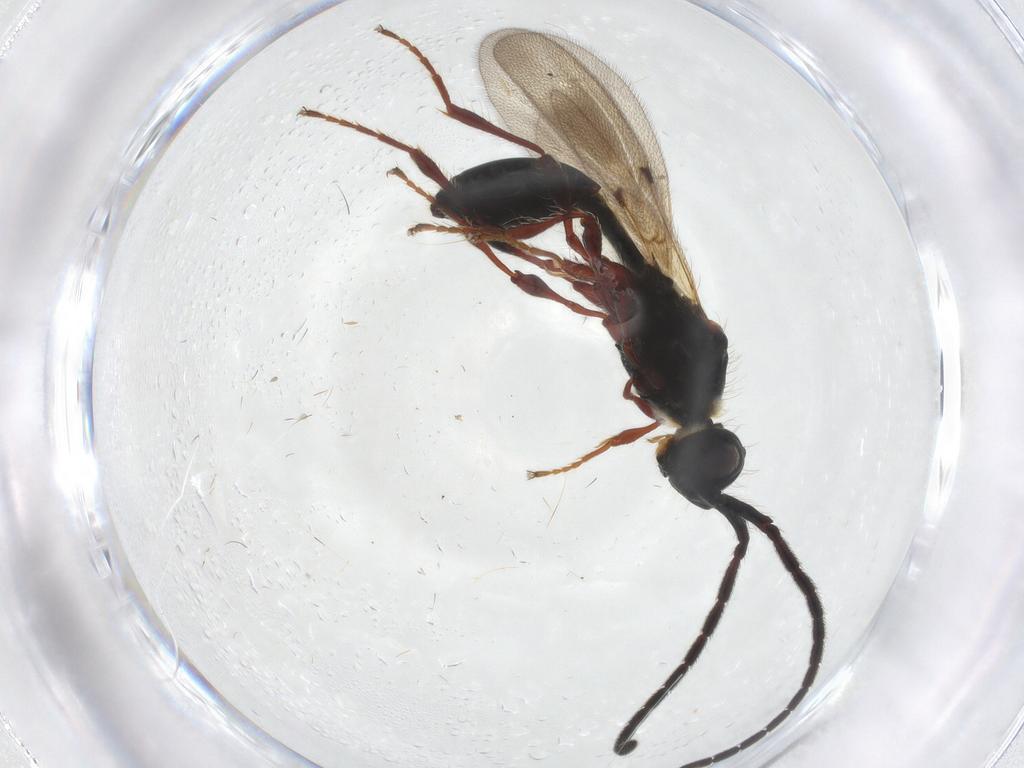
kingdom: Animalia
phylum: Arthropoda
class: Insecta
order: Hymenoptera
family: Diapriidae
